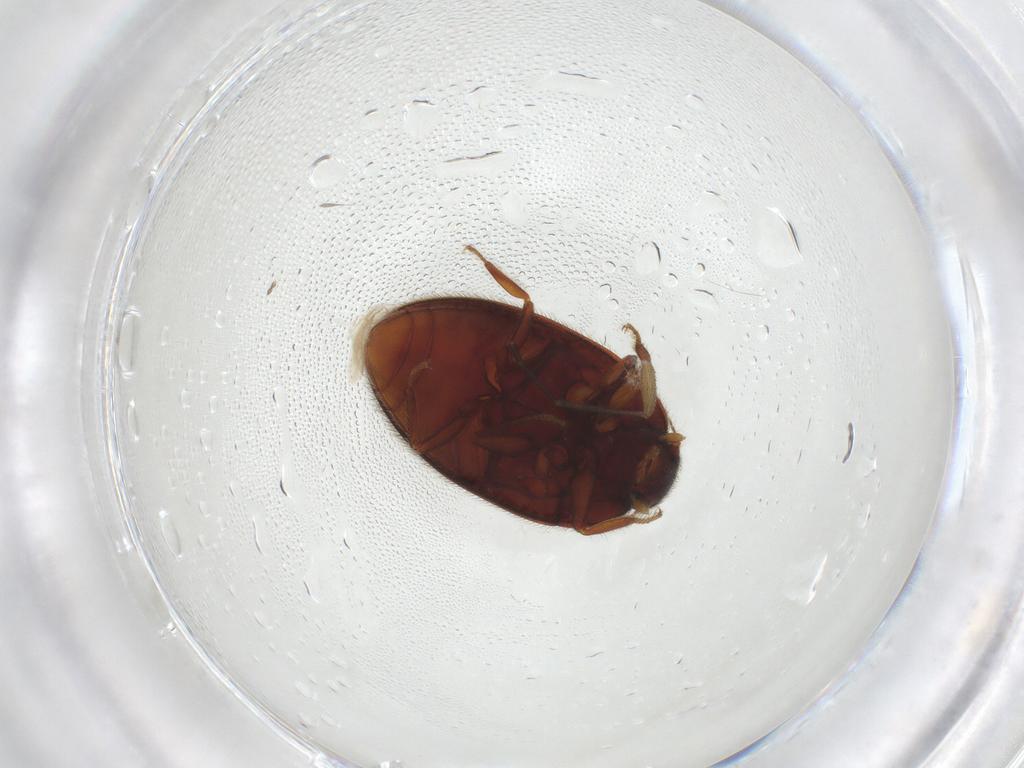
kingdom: Animalia
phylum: Arthropoda
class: Insecta
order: Coleoptera
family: Limnichidae
